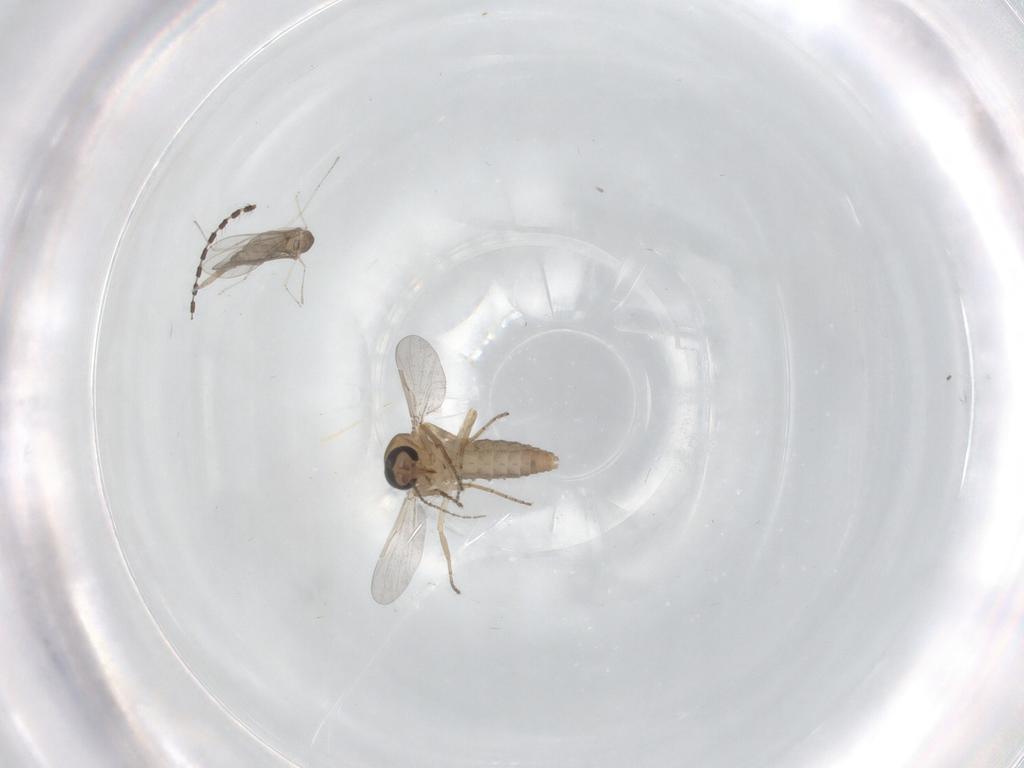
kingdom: Animalia
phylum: Arthropoda
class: Insecta
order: Diptera
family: Ceratopogonidae
